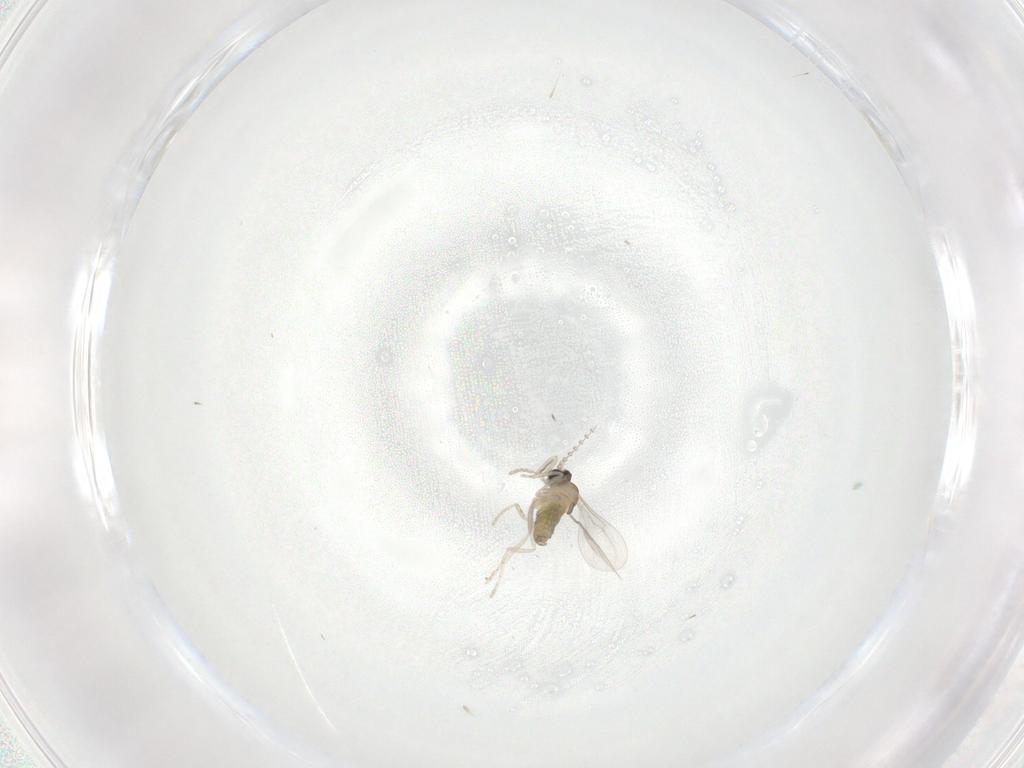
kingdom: Animalia
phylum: Arthropoda
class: Insecta
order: Diptera
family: Cecidomyiidae
